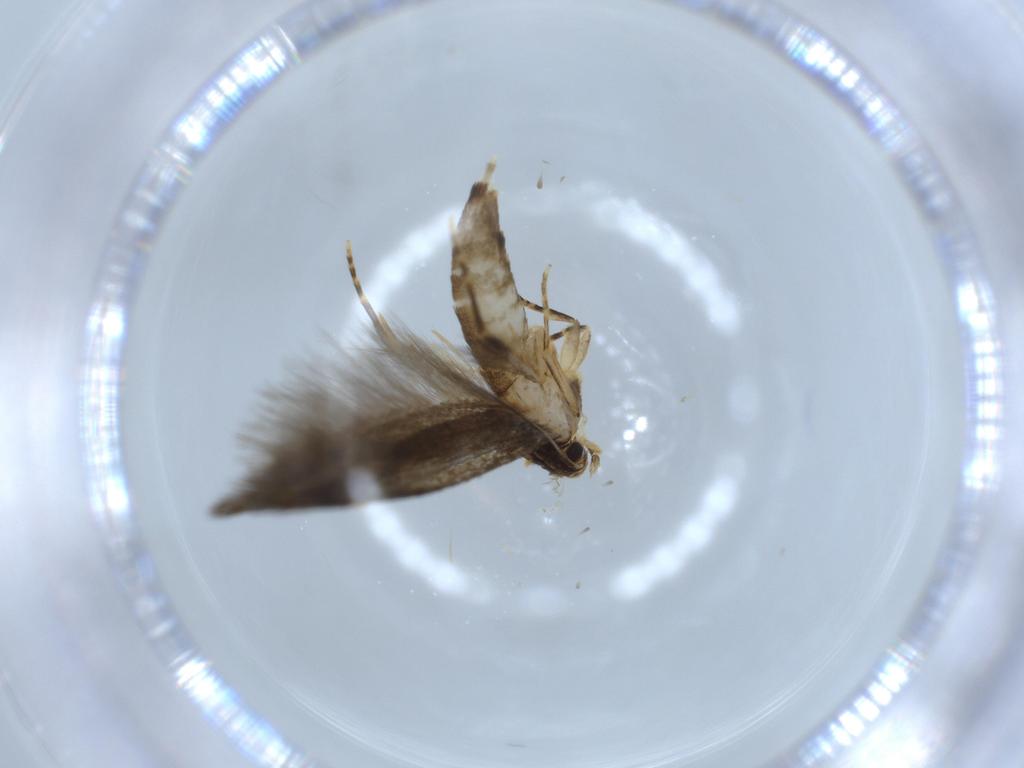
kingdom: Animalia
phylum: Arthropoda
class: Insecta
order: Lepidoptera
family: Tineidae
